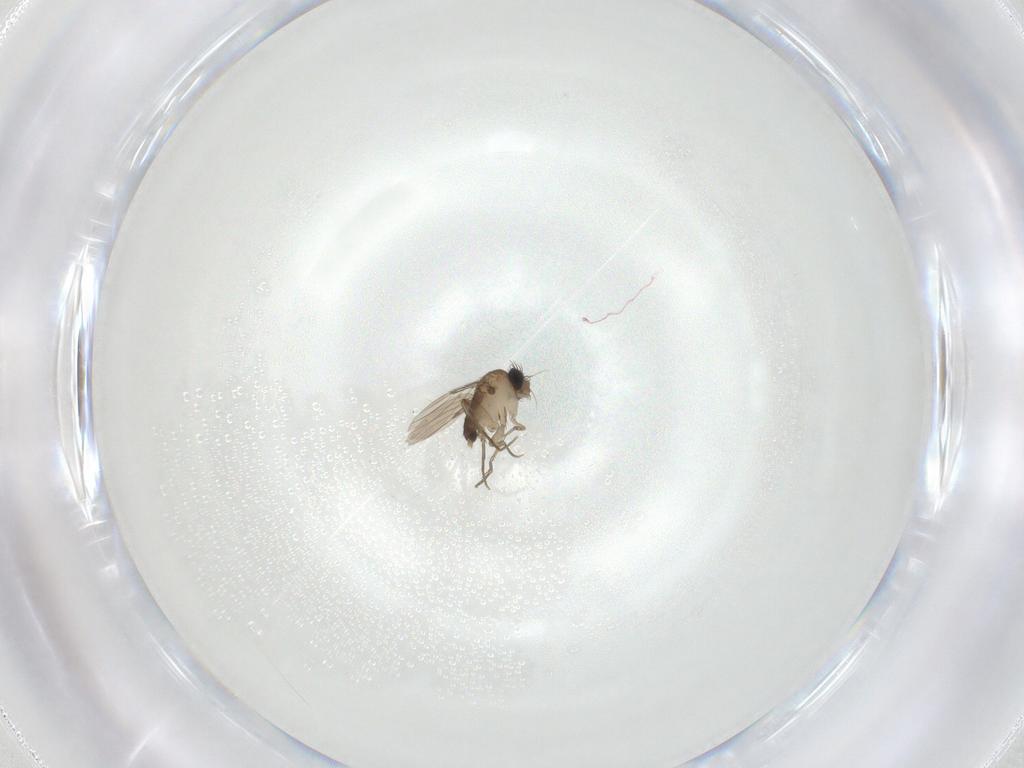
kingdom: Animalia
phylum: Arthropoda
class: Insecta
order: Diptera
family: Phoridae
